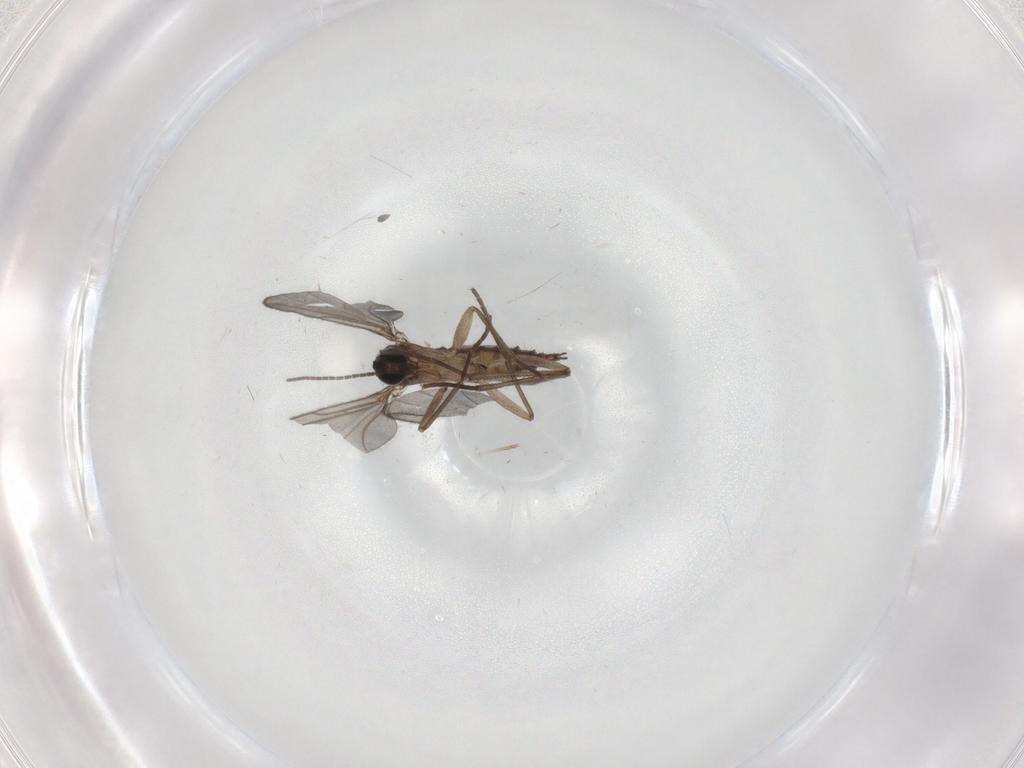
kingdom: Animalia
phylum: Arthropoda
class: Insecta
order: Diptera
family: Sciaridae
